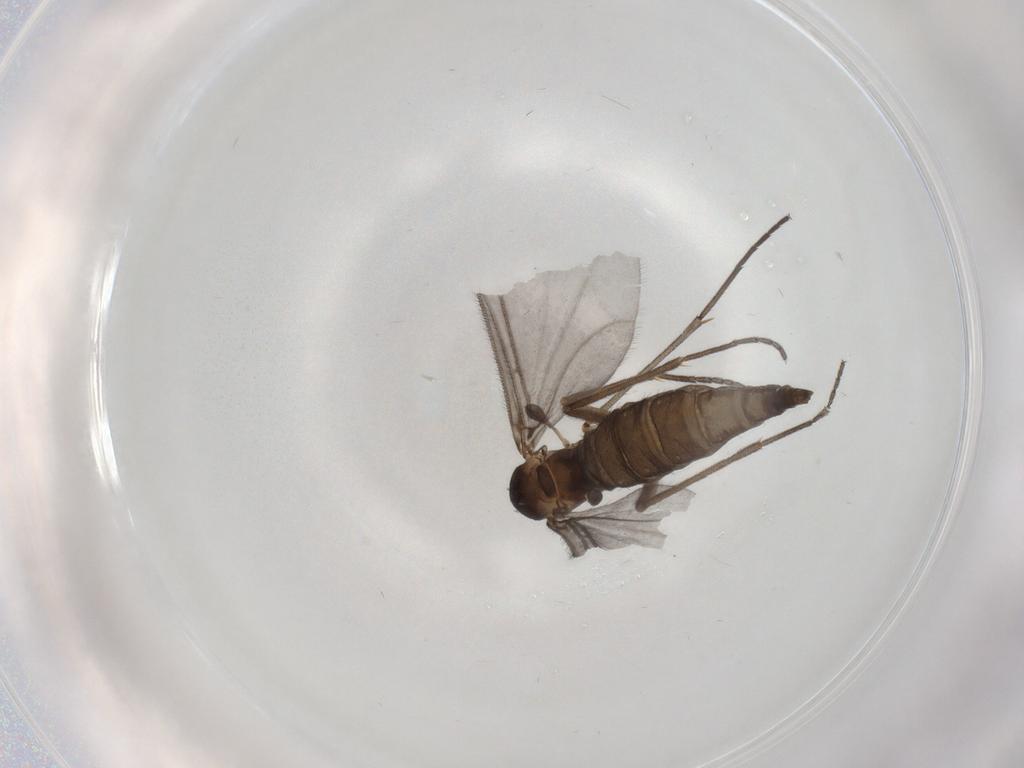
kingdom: Animalia
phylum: Arthropoda
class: Insecta
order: Diptera
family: Sciaridae
